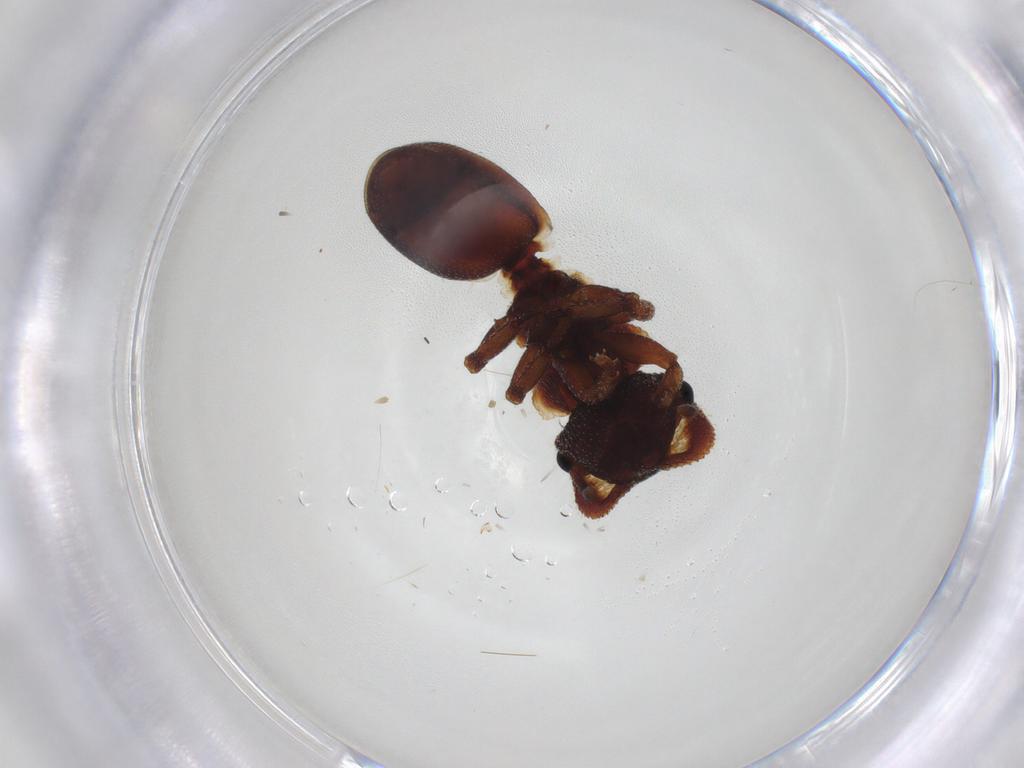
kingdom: Animalia
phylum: Arthropoda
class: Insecta
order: Hymenoptera
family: Formicidae
